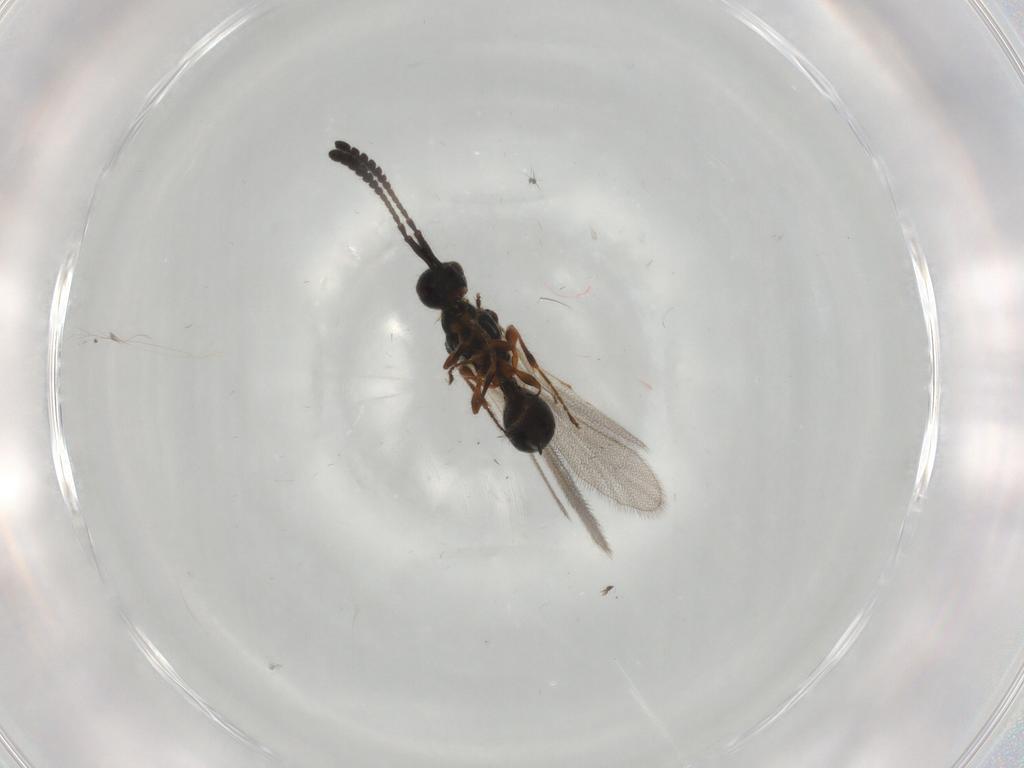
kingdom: Animalia
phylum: Arthropoda
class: Insecta
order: Hymenoptera
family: Diapriidae
